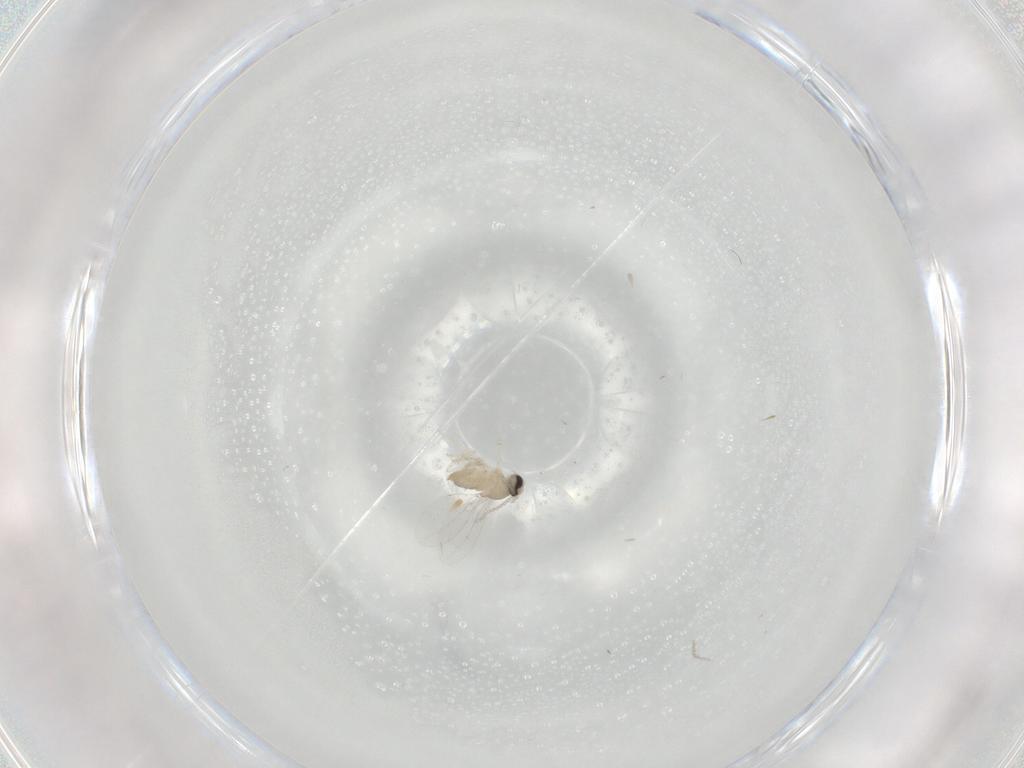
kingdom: Animalia
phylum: Arthropoda
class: Insecta
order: Diptera
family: Cecidomyiidae
